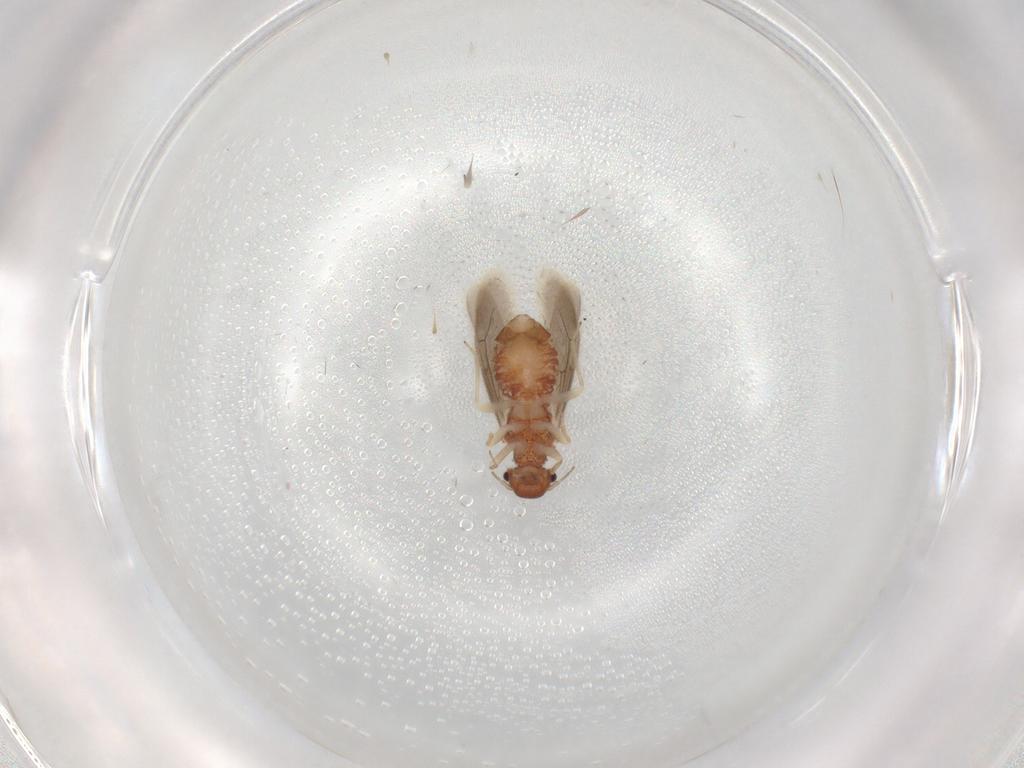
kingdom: Animalia
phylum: Arthropoda
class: Insecta
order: Psocodea
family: Archipsocidae
